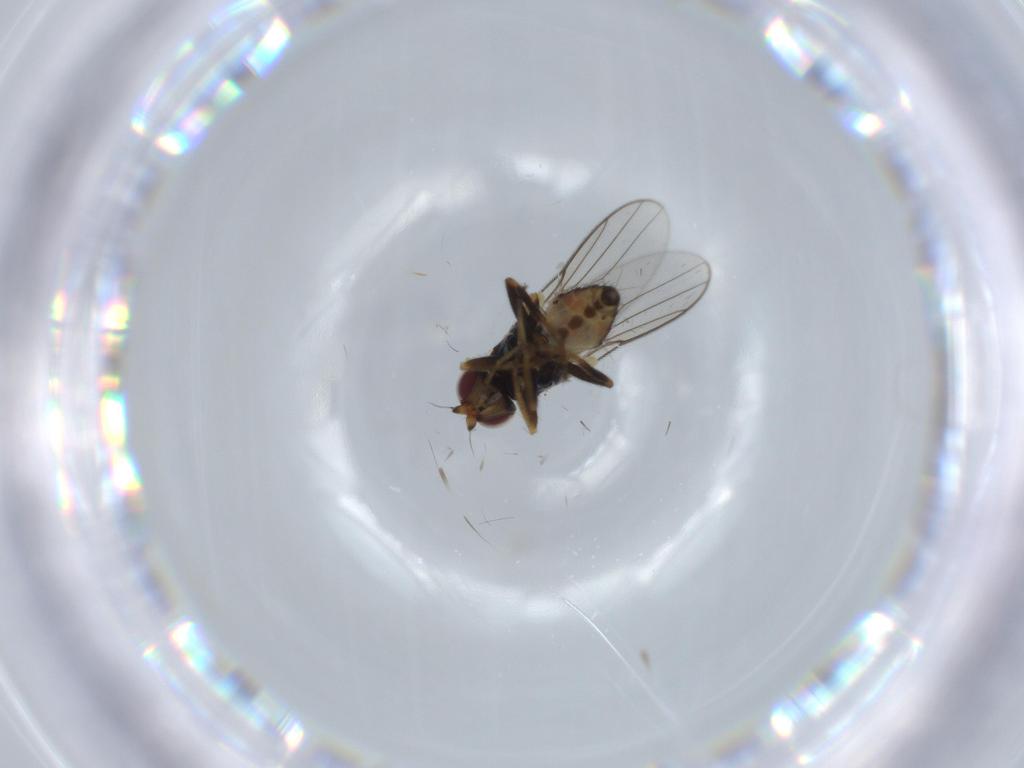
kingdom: Animalia
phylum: Arthropoda
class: Insecta
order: Diptera
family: Chloropidae
